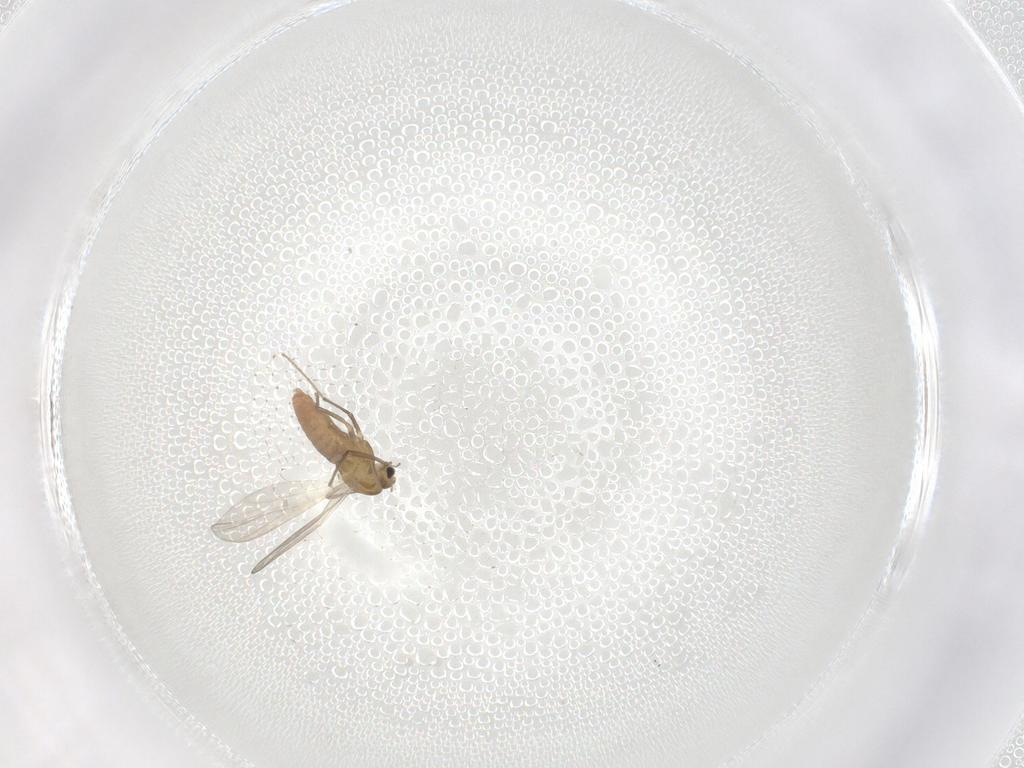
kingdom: Animalia
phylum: Arthropoda
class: Insecta
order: Diptera
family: Chironomidae
